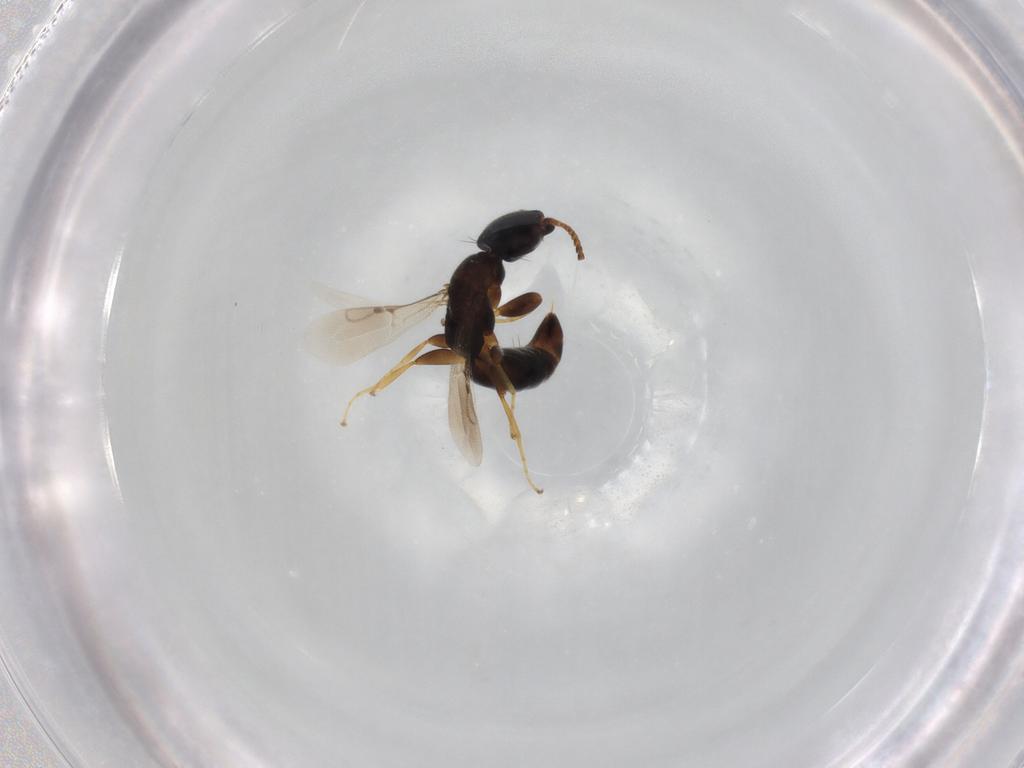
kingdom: Animalia
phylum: Arthropoda
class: Insecta
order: Hymenoptera
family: Bethylidae
